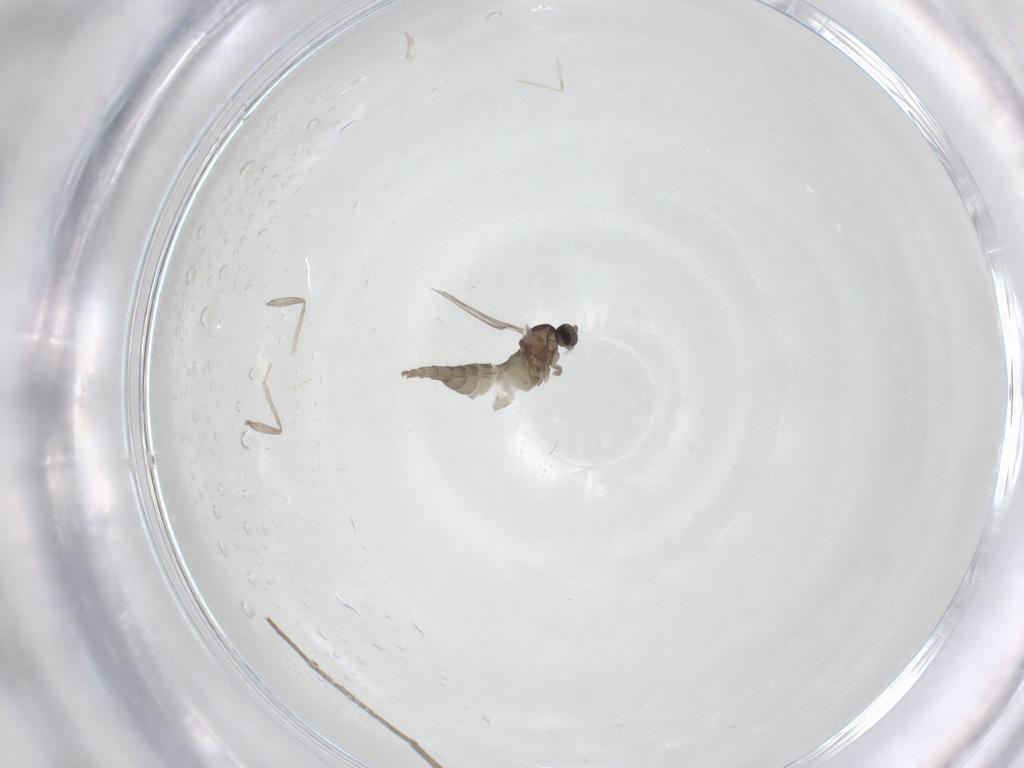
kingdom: Animalia
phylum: Arthropoda
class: Insecta
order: Diptera
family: Cecidomyiidae
